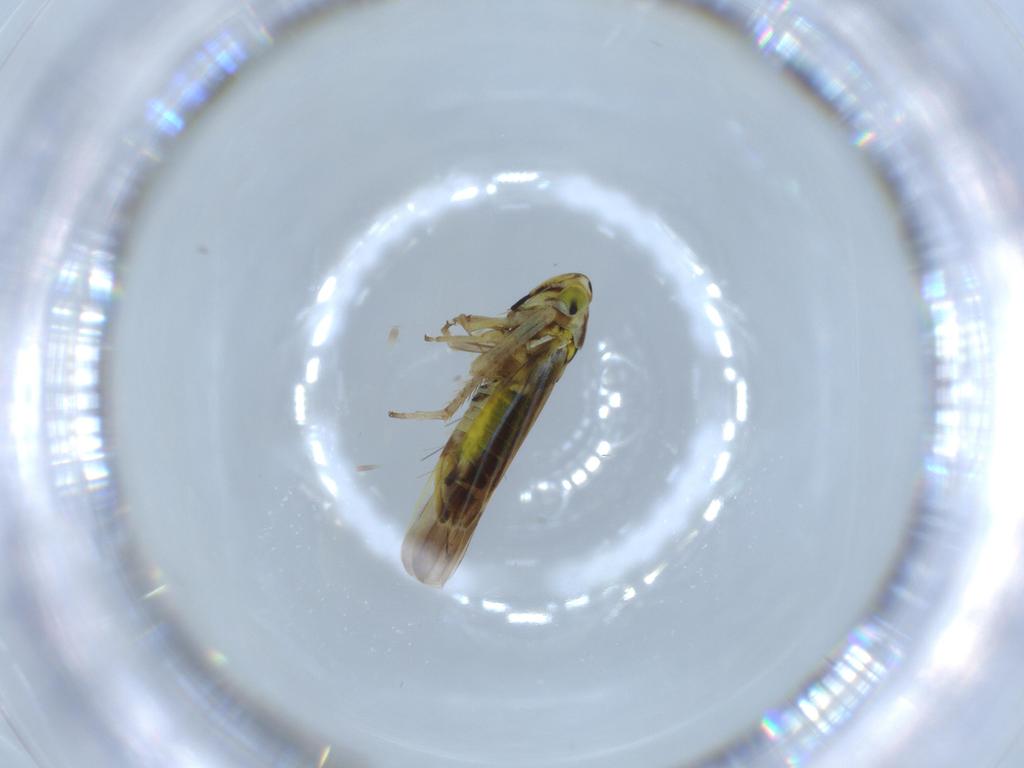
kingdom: Animalia
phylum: Arthropoda
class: Insecta
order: Hemiptera
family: Cicadellidae
